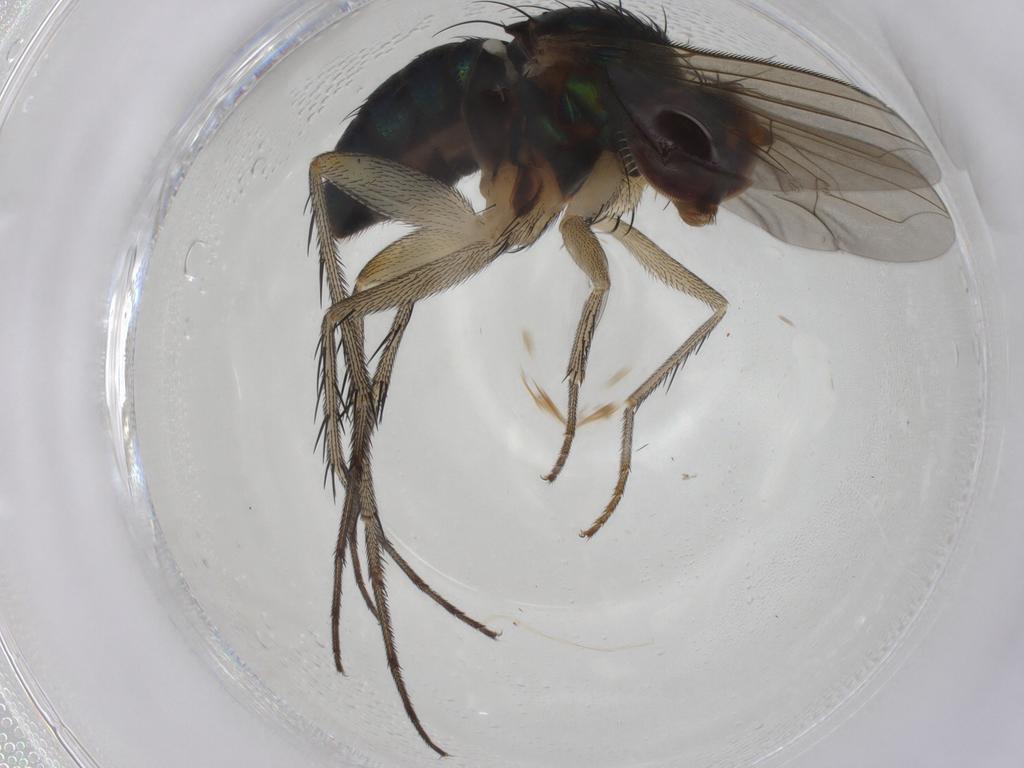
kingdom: Animalia
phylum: Arthropoda
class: Insecta
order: Diptera
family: Dolichopodidae
